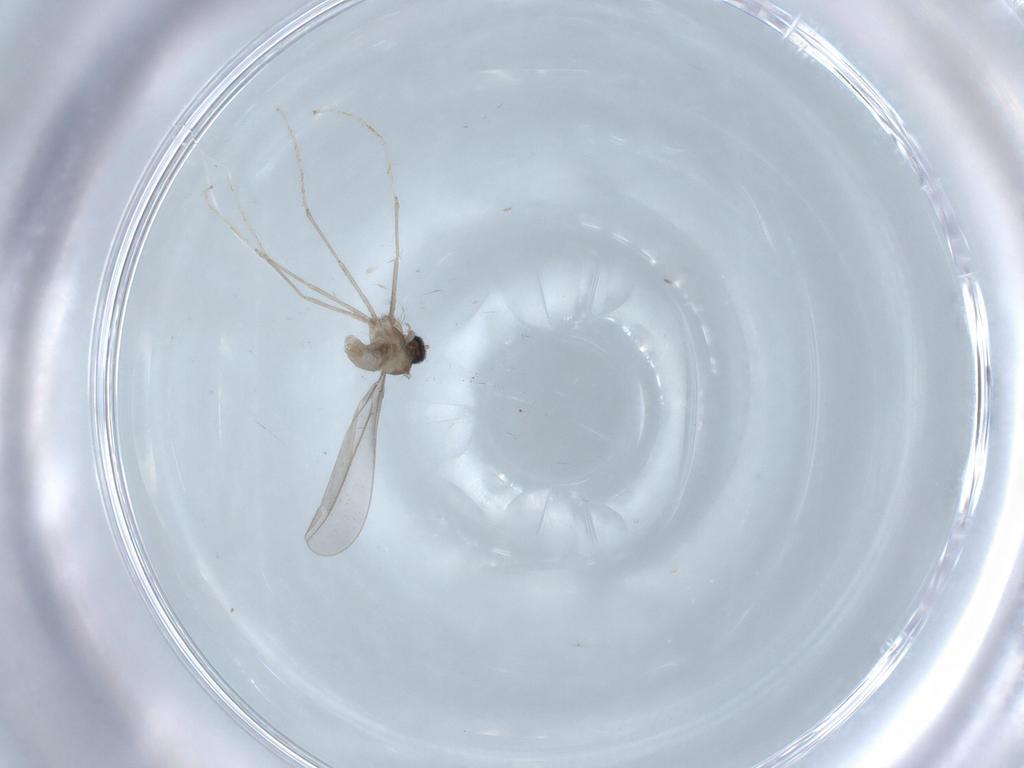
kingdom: Animalia
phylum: Arthropoda
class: Insecta
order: Diptera
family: Cecidomyiidae
